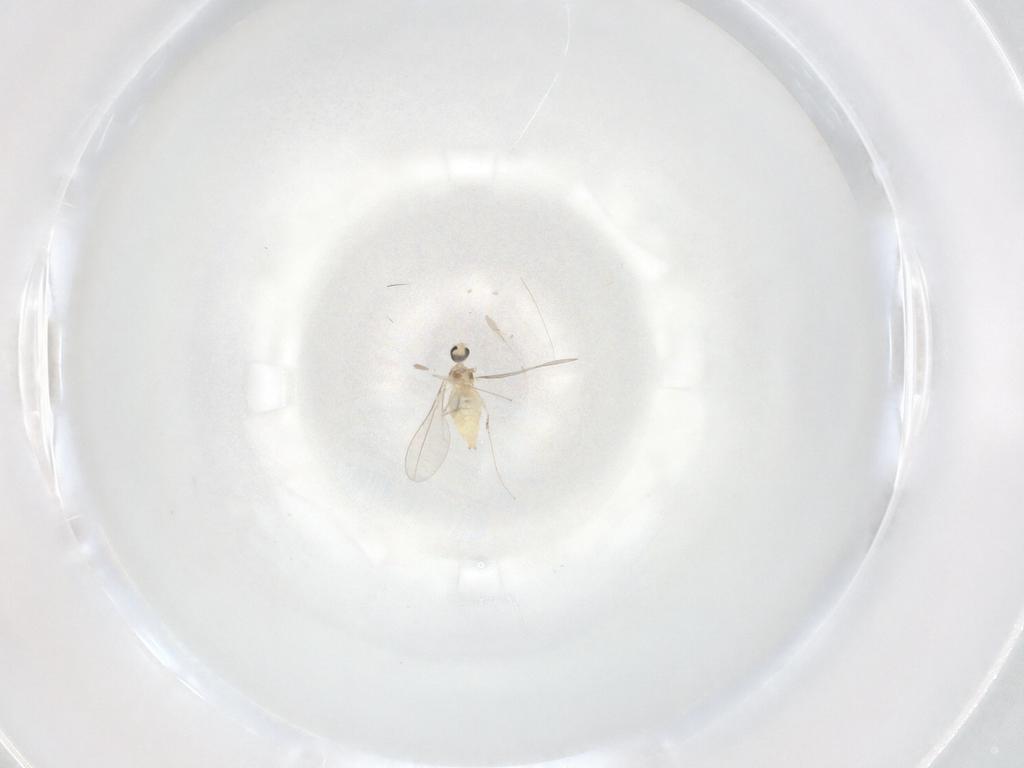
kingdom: Animalia
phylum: Arthropoda
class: Insecta
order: Diptera
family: Cecidomyiidae
